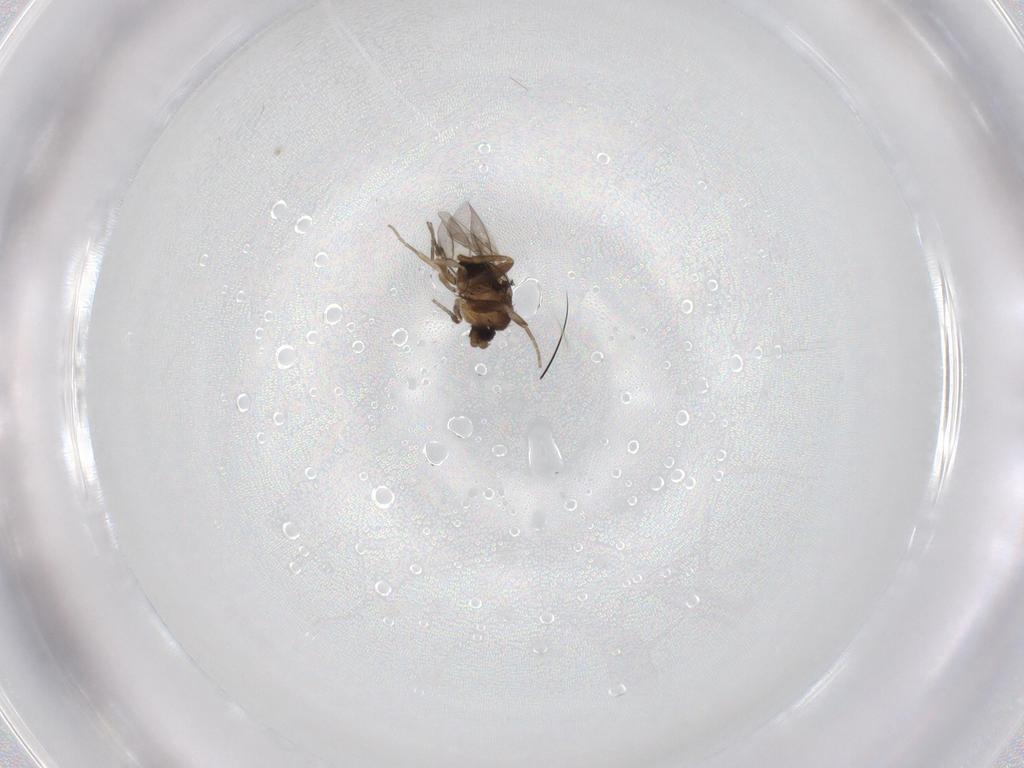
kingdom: Animalia
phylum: Arthropoda
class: Insecta
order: Diptera
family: Phoridae
